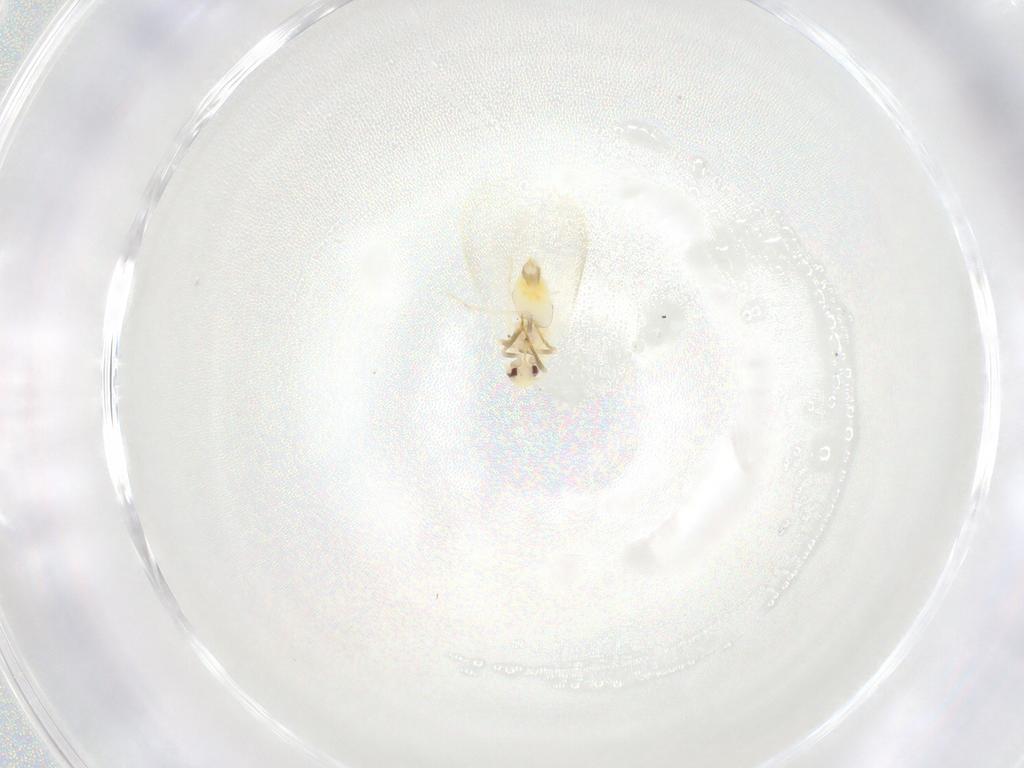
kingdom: Animalia
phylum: Arthropoda
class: Insecta
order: Hemiptera
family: Aleyrodidae
